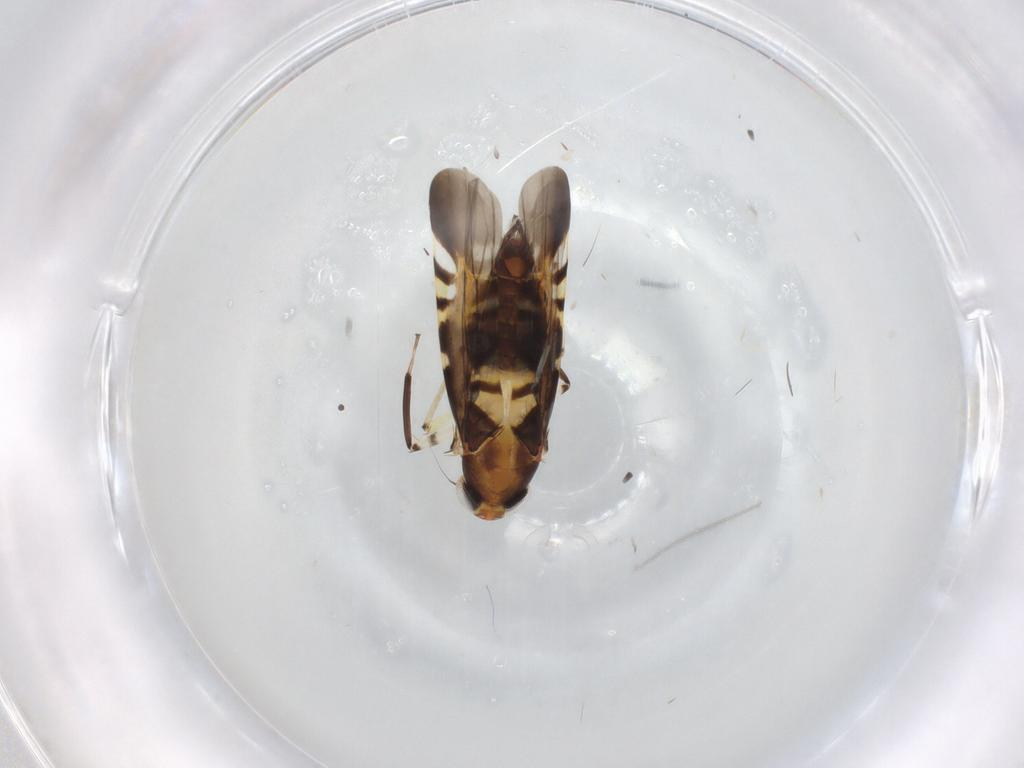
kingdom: Animalia
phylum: Arthropoda
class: Insecta
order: Hemiptera
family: Cicadellidae
